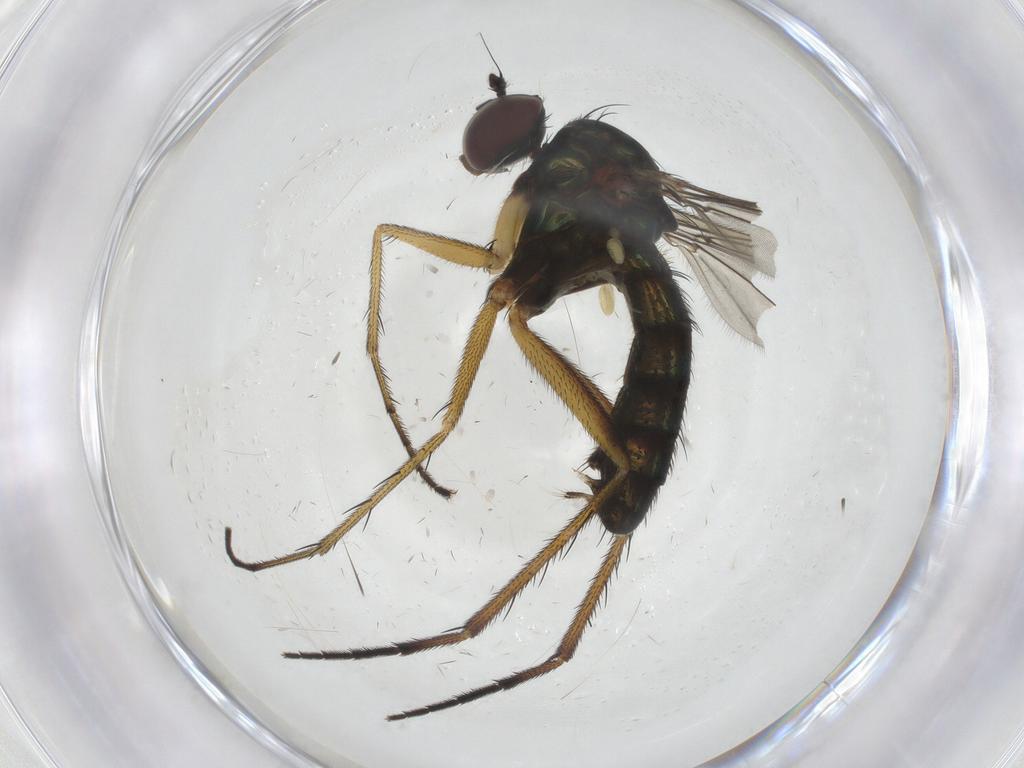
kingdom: Animalia
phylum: Arthropoda
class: Insecta
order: Diptera
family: Dolichopodidae
